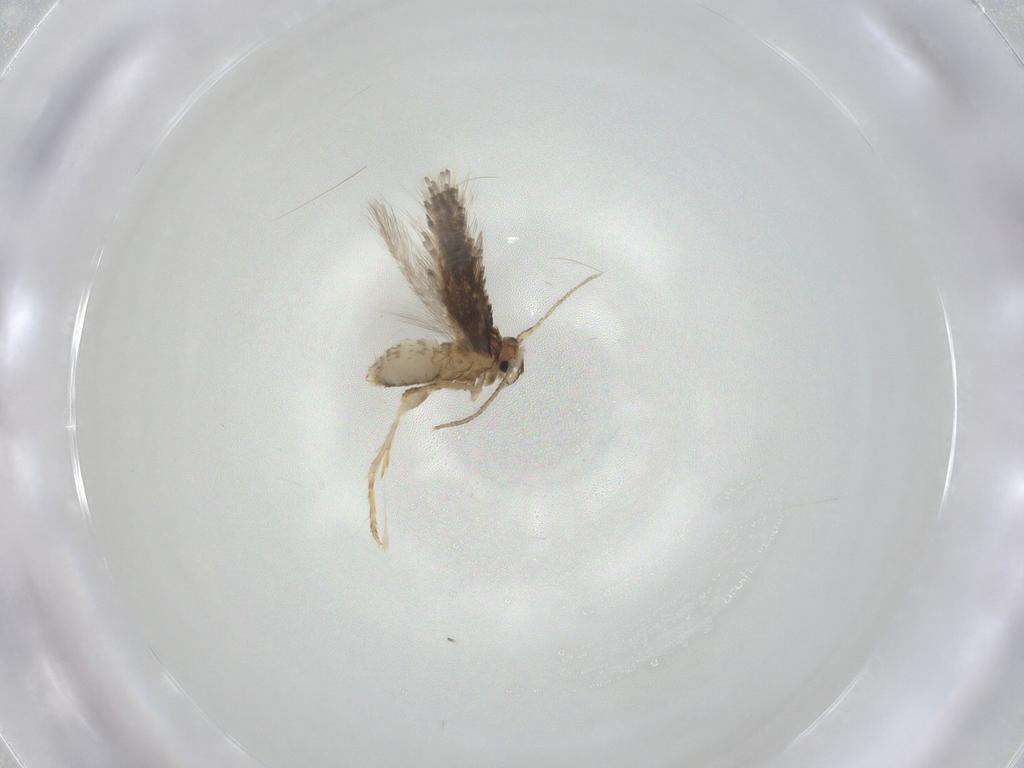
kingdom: Animalia
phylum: Arthropoda
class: Insecta
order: Lepidoptera
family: Nepticulidae
